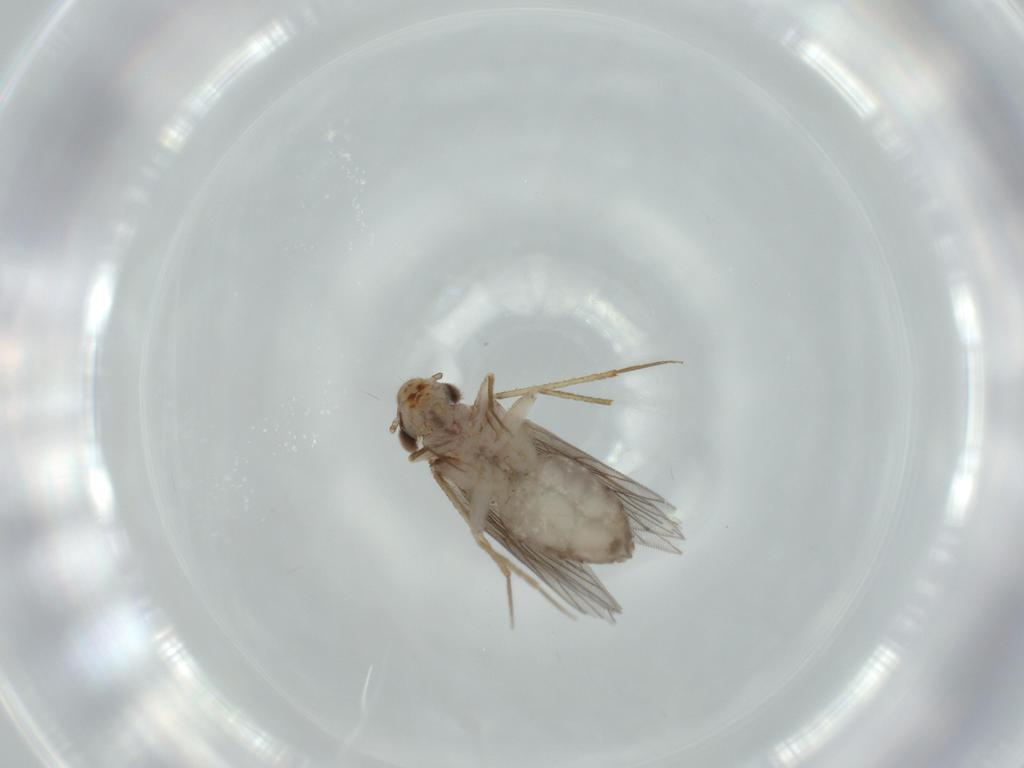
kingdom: Animalia
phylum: Arthropoda
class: Insecta
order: Psocodea
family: Lepidopsocidae
